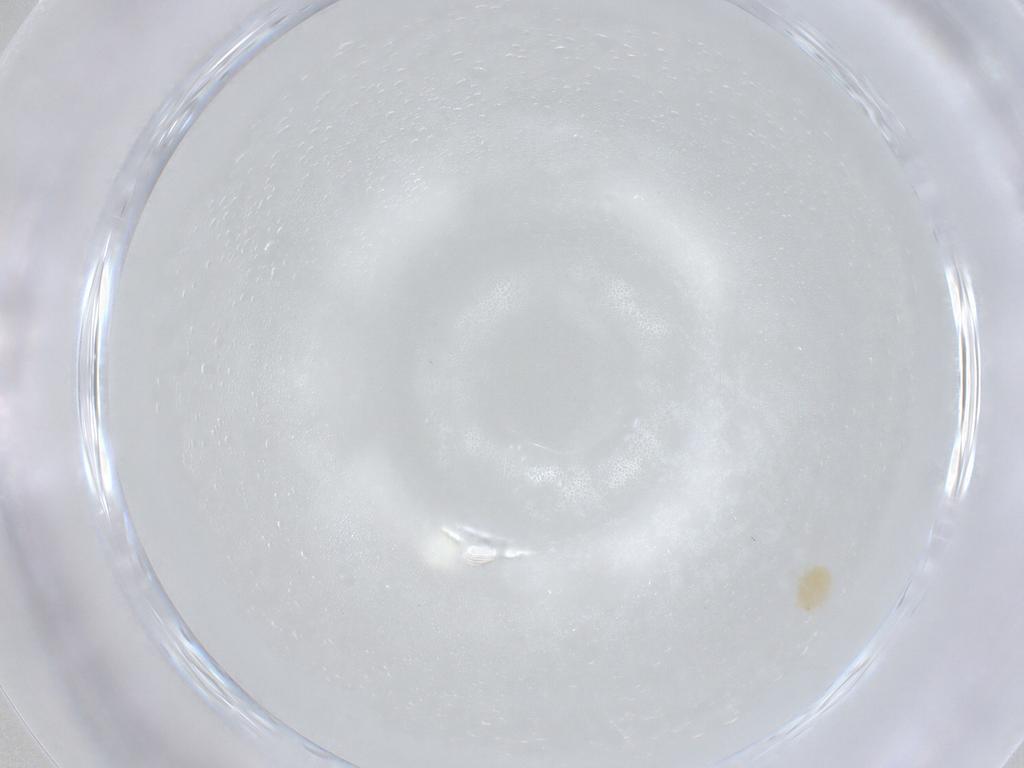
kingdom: Animalia
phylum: Arthropoda
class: Arachnida
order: Trombidiformes
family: Tetranychidae
